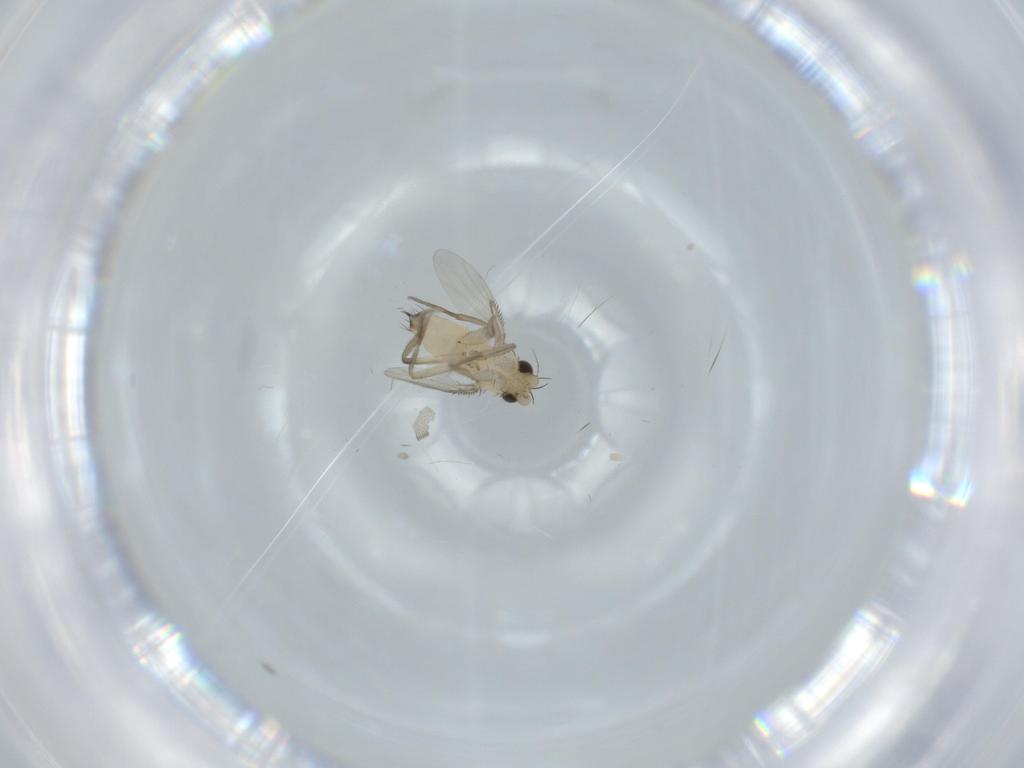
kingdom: Animalia
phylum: Arthropoda
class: Insecta
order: Diptera
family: Phoridae
